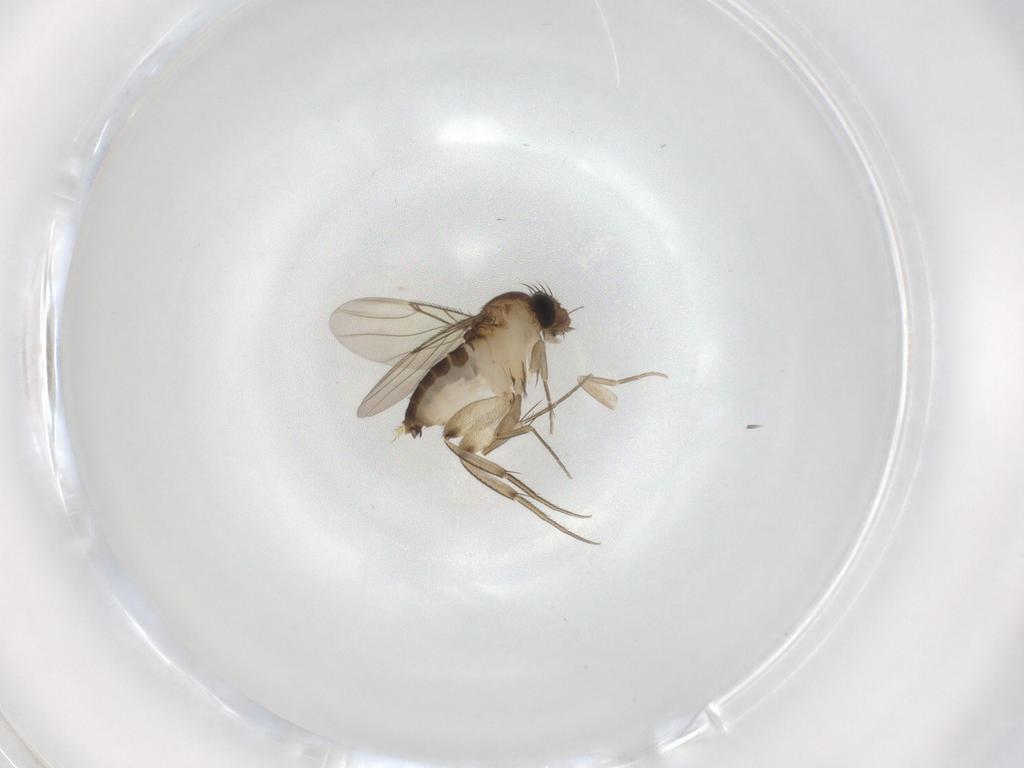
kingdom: Animalia
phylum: Arthropoda
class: Insecta
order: Diptera
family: Phoridae
